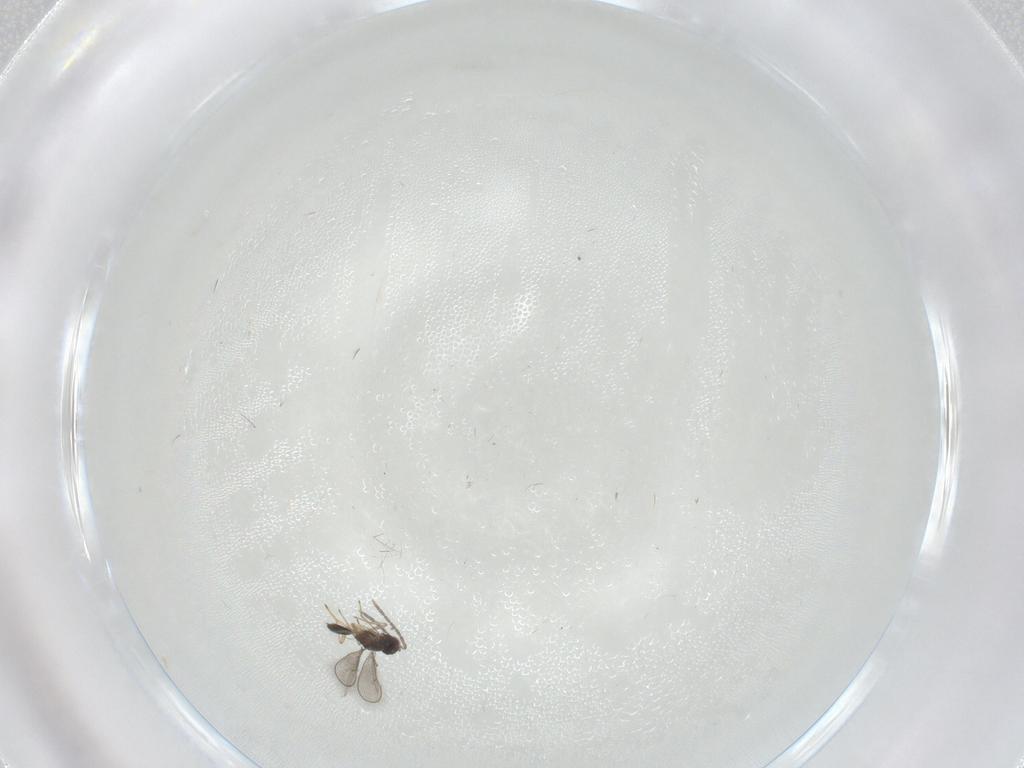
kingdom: Animalia
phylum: Arthropoda
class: Insecta
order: Hymenoptera
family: Eulophidae
